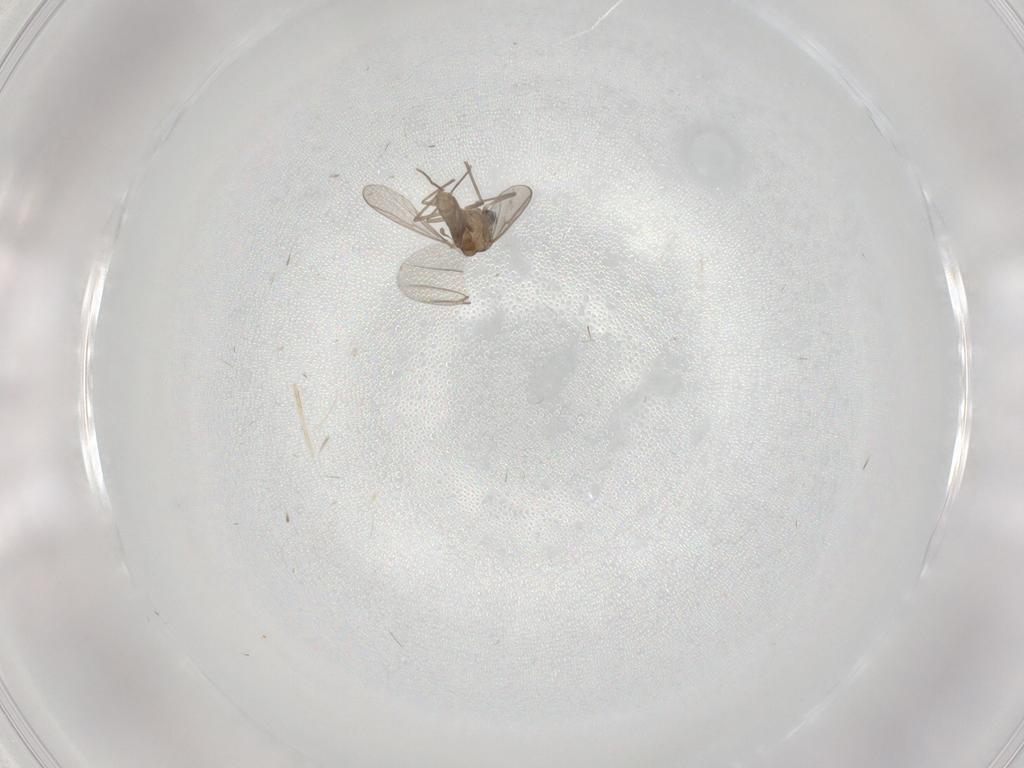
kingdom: Animalia
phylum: Arthropoda
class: Insecta
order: Diptera
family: Chironomidae
